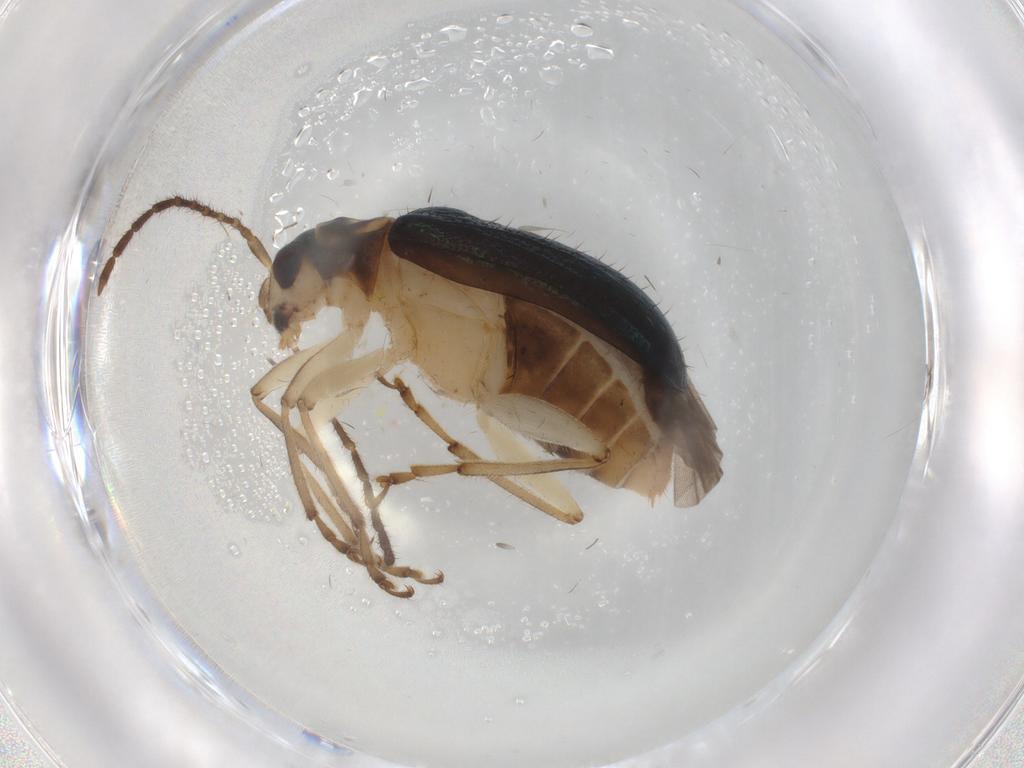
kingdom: Animalia
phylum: Arthropoda
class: Insecta
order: Coleoptera
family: Chrysomelidae
